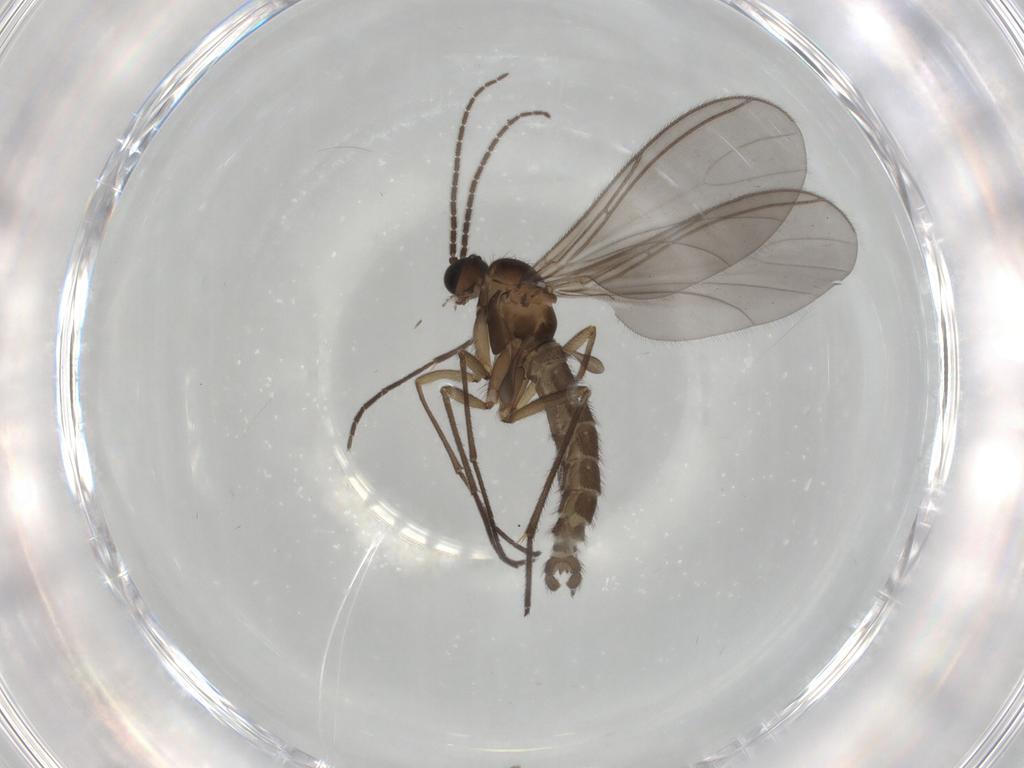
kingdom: Animalia
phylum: Arthropoda
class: Insecta
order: Diptera
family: Sciaridae
